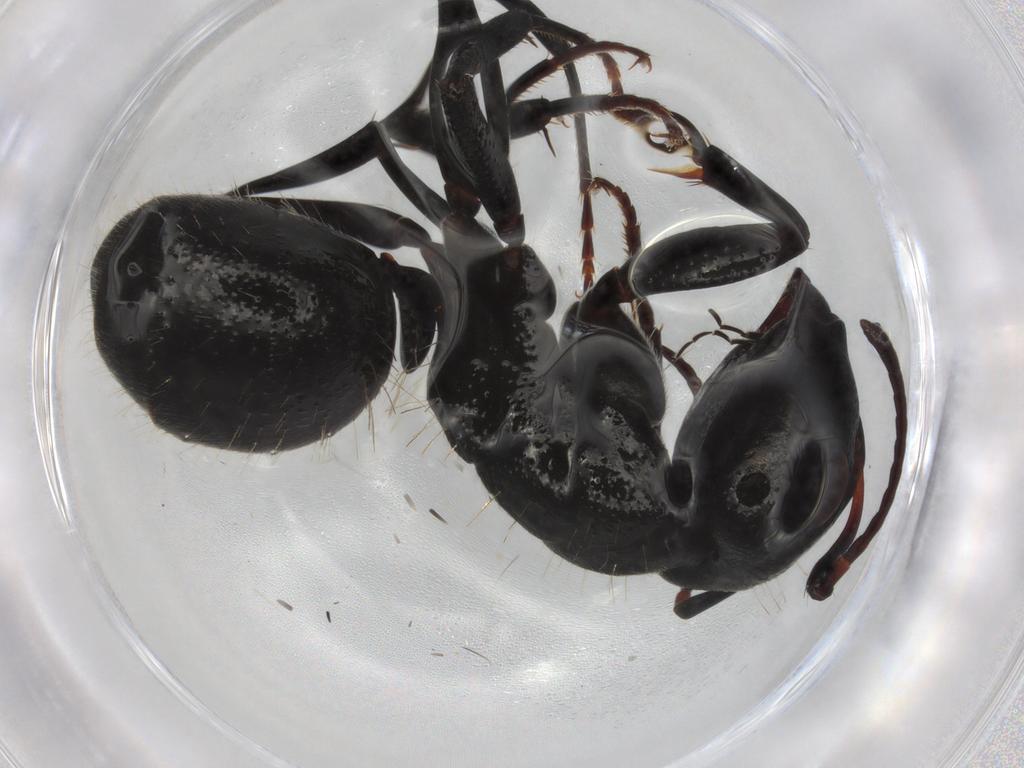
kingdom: Animalia
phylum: Arthropoda
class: Insecta
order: Hymenoptera
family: Formicidae
